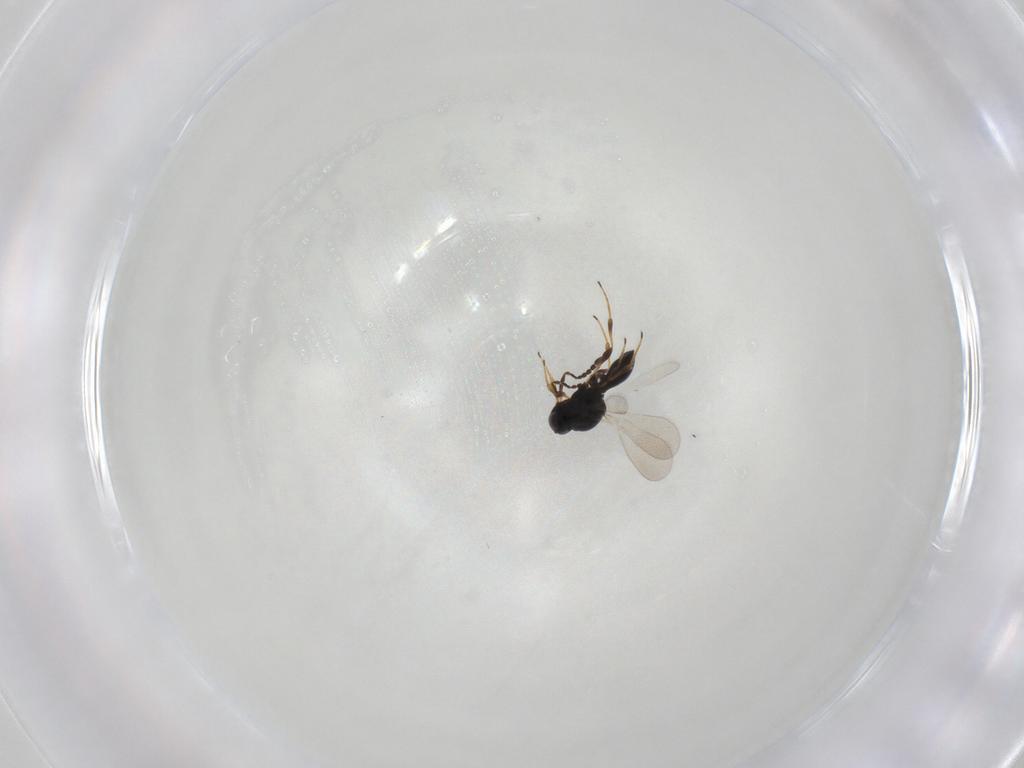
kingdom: Animalia
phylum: Arthropoda
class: Insecta
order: Hymenoptera
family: Platygastridae
